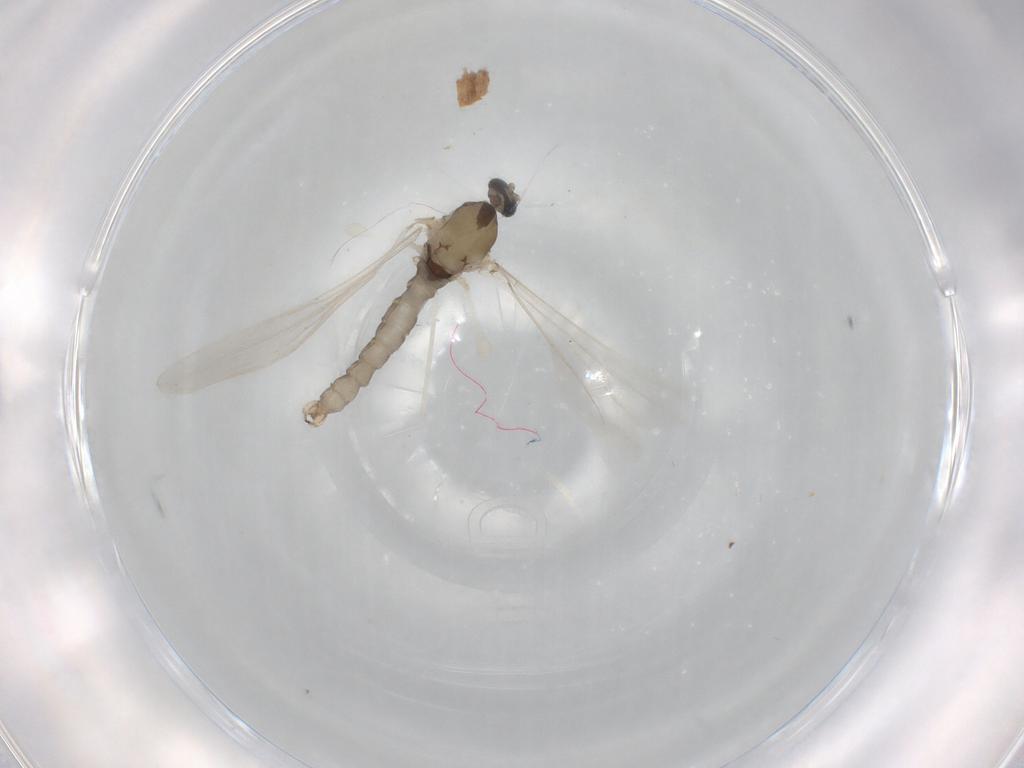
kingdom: Animalia
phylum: Arthropoda
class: Insecta
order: Diptera
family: Cecidomyiidae
